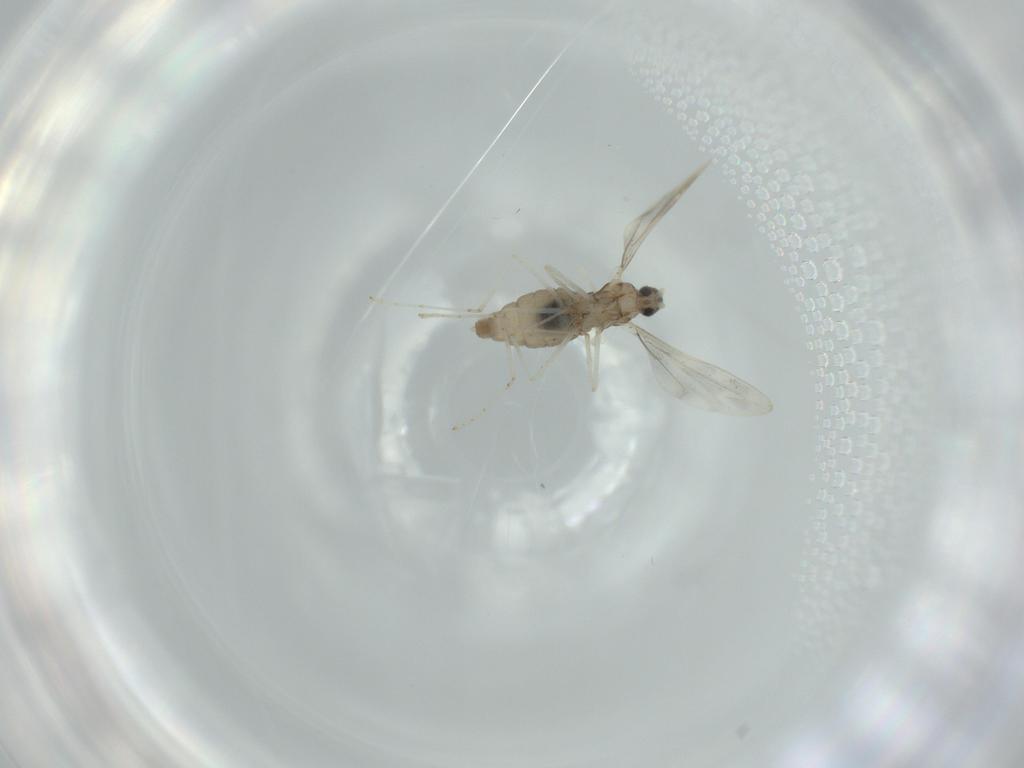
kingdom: Animalia
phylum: Arthropoda
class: Insecta
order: Diptera
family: Cecidomyiidae
